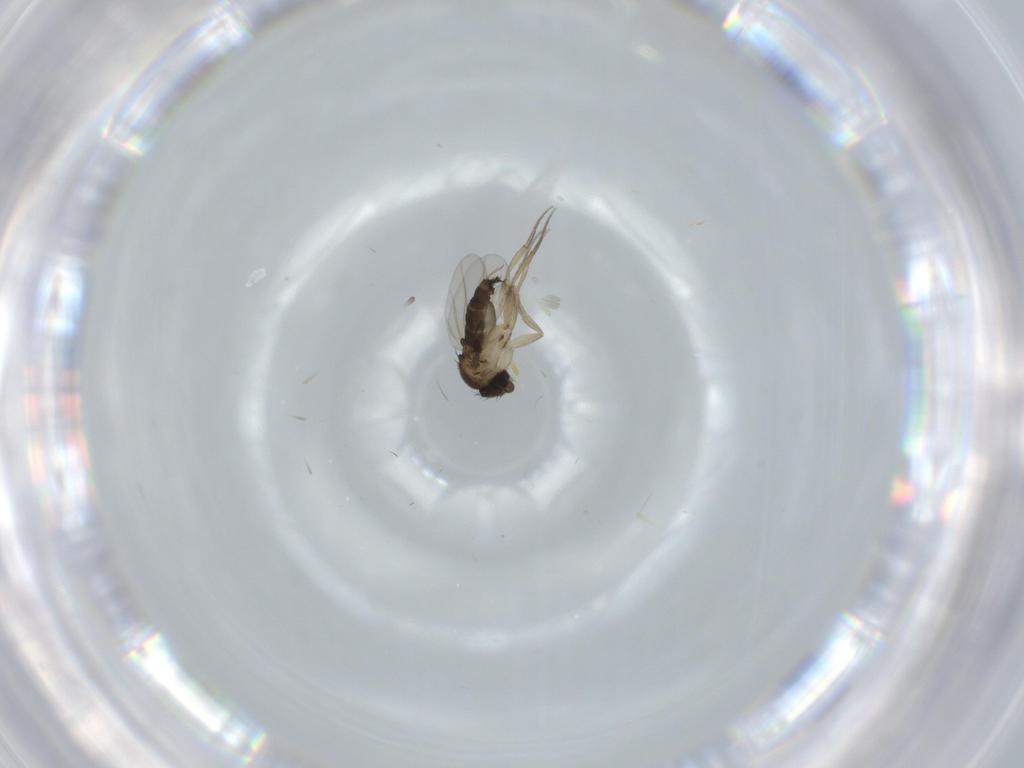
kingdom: Animalia
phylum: Arthropoda
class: Insecta
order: Diptera
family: Phoridae
